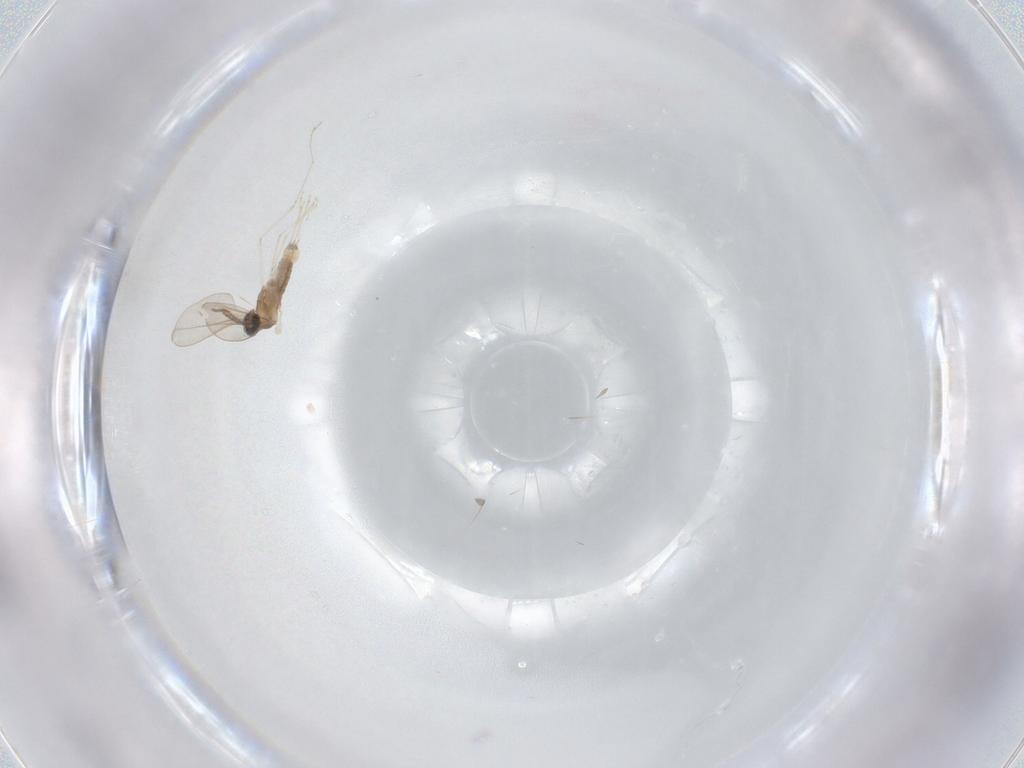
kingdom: Animalia
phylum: Arthropoda
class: Insecta
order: Diptera
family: Cecidomyiidae
